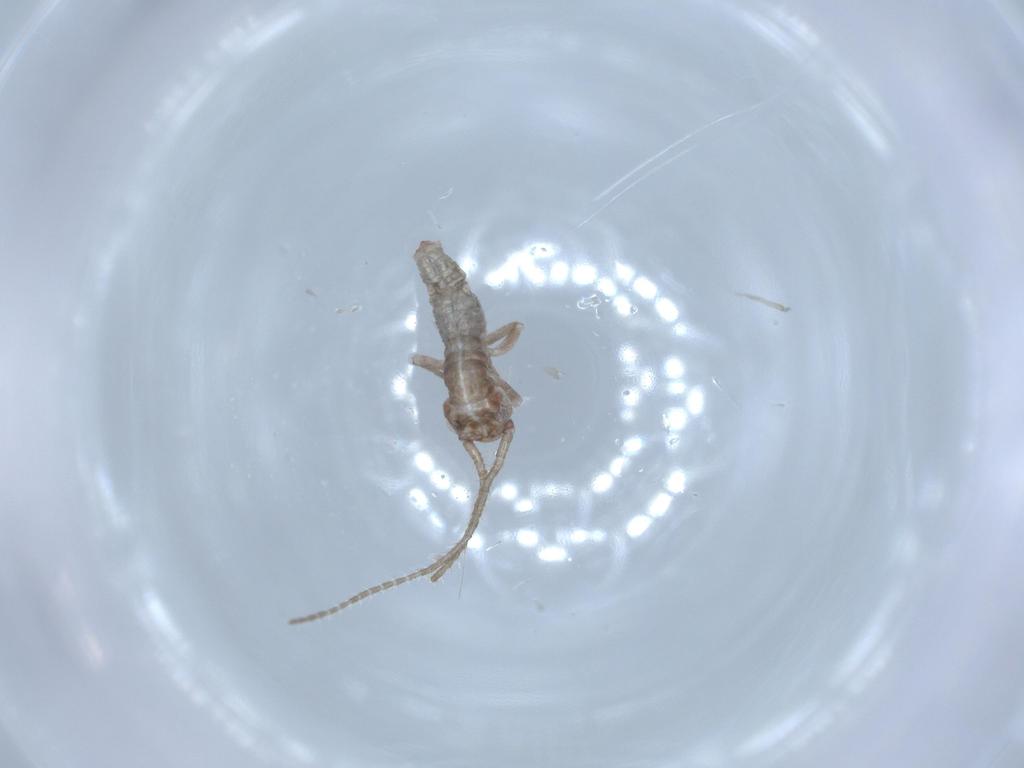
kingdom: Animalia
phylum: Arthropoda
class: Insecta
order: Orthoptera
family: Mogoplistidae
